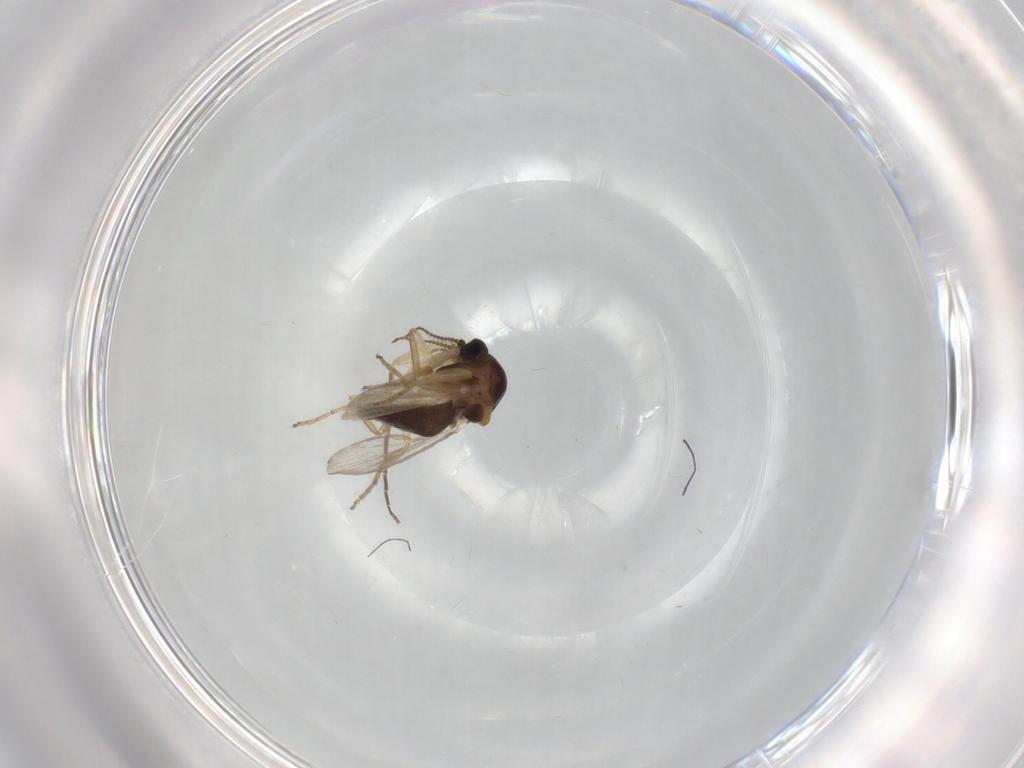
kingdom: Animalia
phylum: Arthropoda
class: Insecta
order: Diptera
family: Ceratopogonidae
